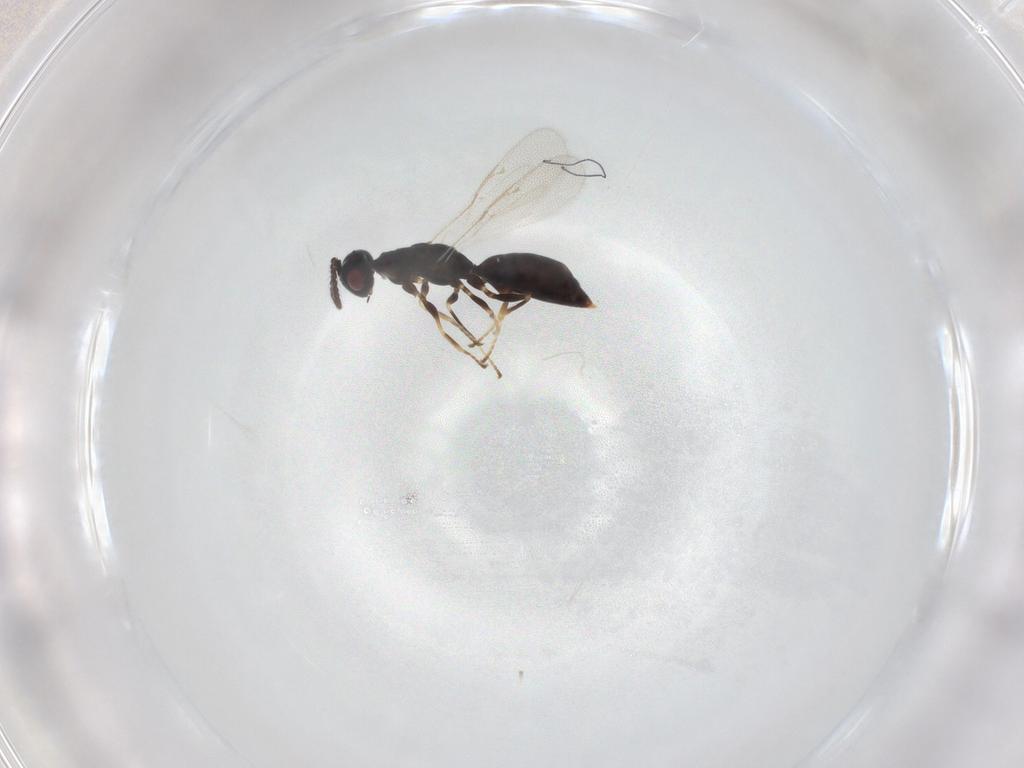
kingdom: Animalia
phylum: Arthropoda
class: Insecta
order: Hymenoptera
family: Eurytomidae
